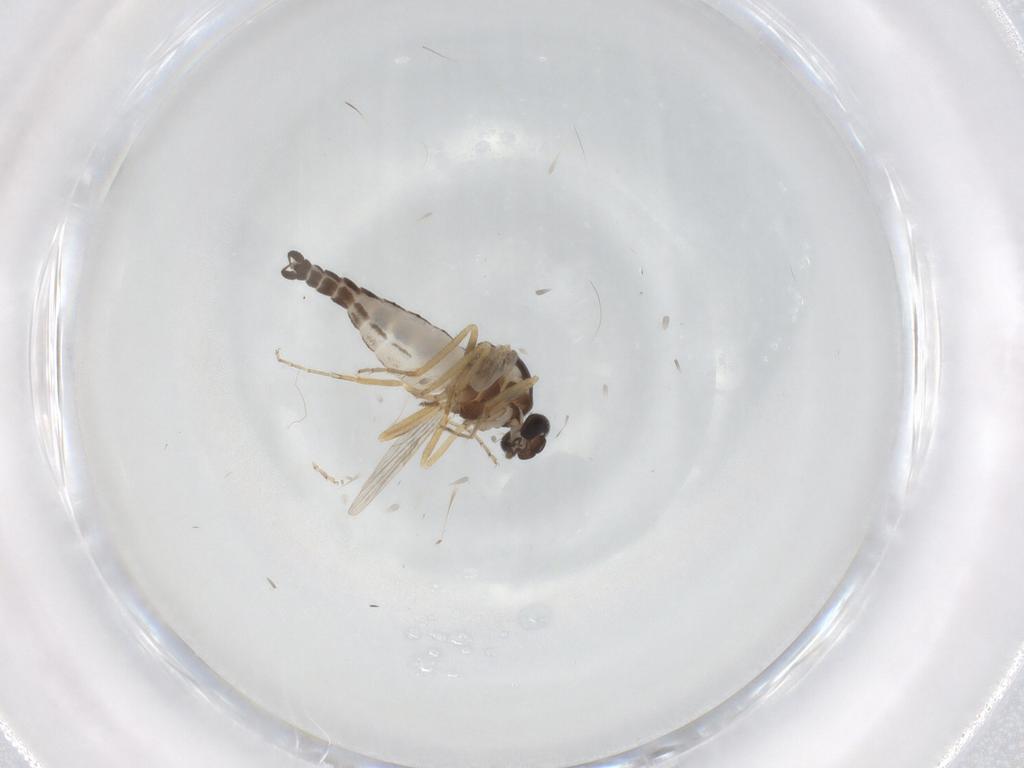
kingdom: Animalia
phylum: Arthropoda
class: Insecta
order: Diptera
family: Ceratopogonidae
